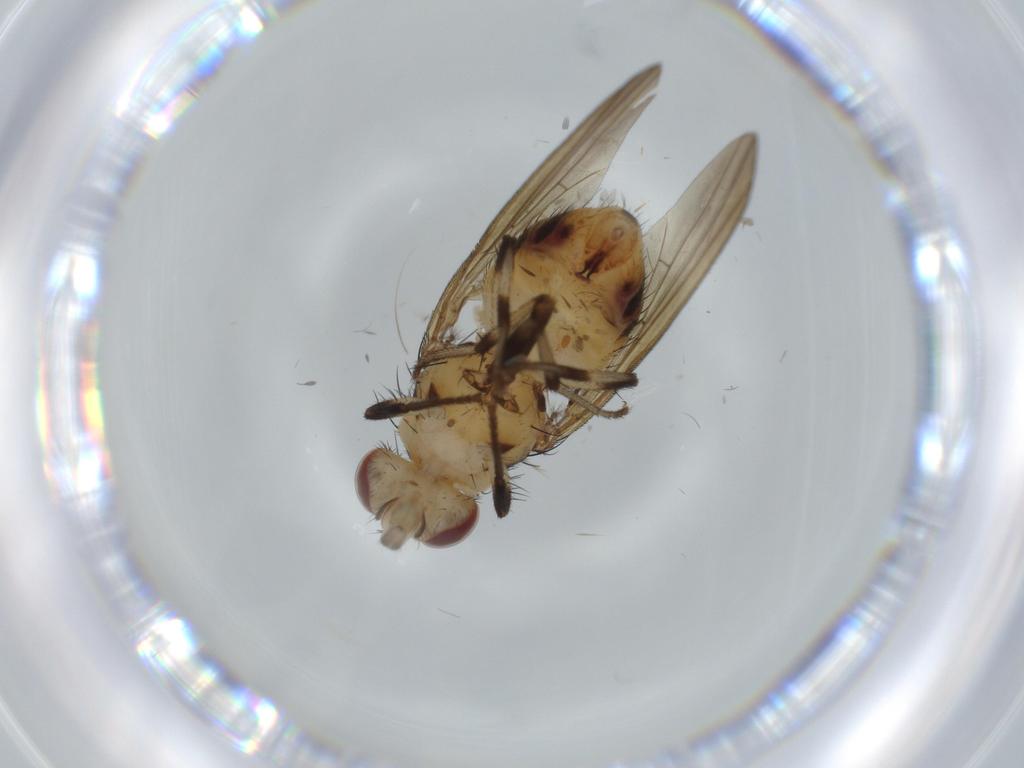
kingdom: Animalia
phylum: Arthropoda
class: Insecta
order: Diptera
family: Lauxaniidae
